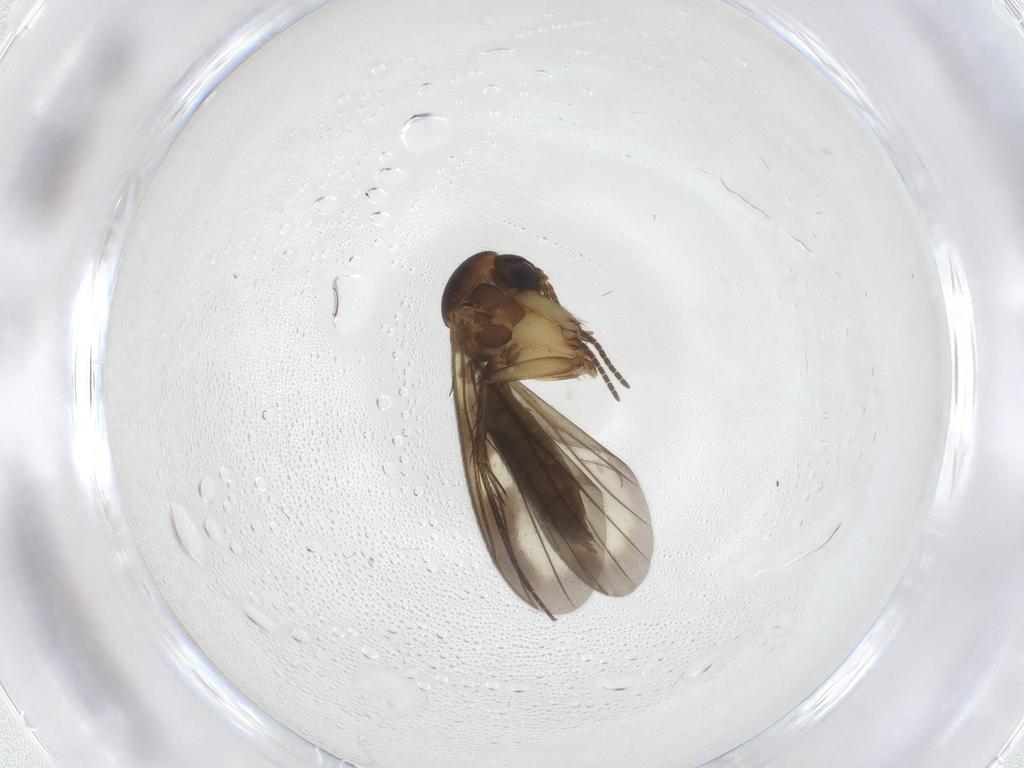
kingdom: Animalia
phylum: Arthropoda
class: Insecta
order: Diptera
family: Mycetophilidae
